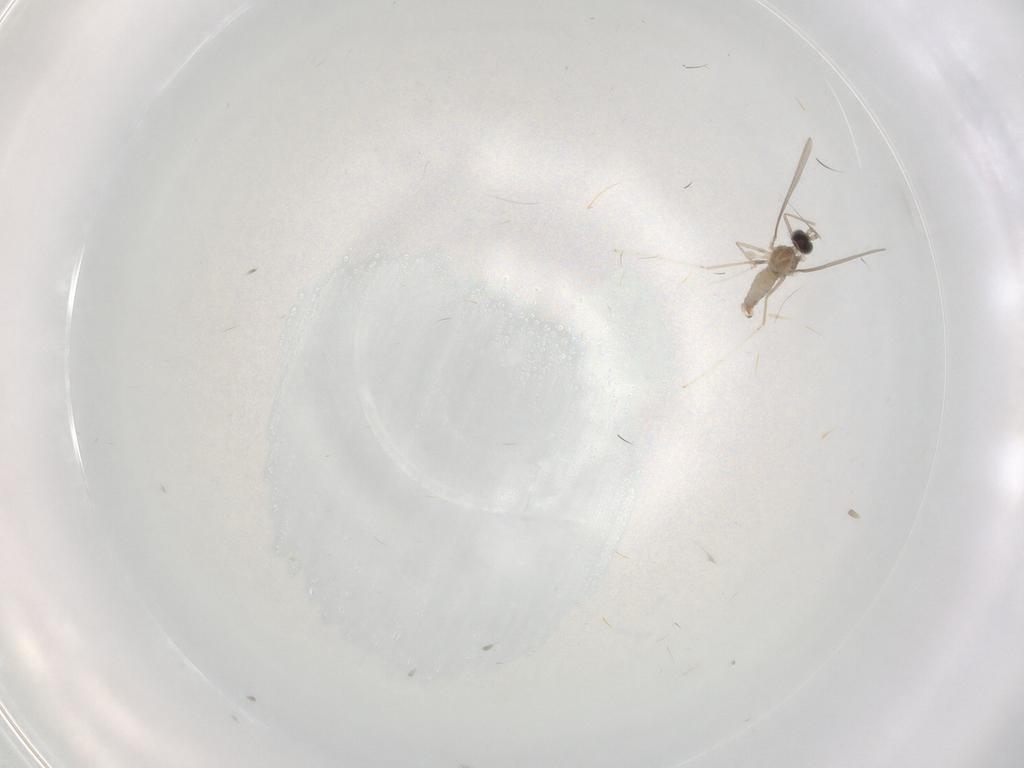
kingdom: Animalia
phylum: Arthropoda
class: Insecta
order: Diptera
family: Cecidomyiidae
